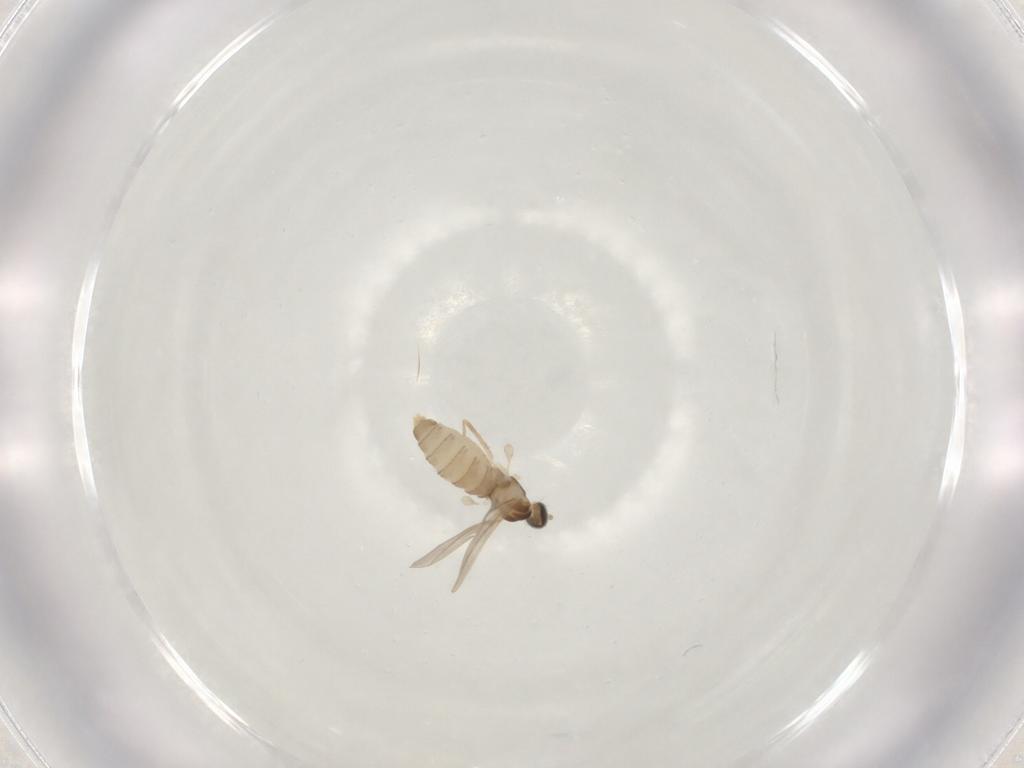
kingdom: Animalia
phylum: Arthropoda
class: Insecta
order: Diptera
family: Cecidomyiidae
